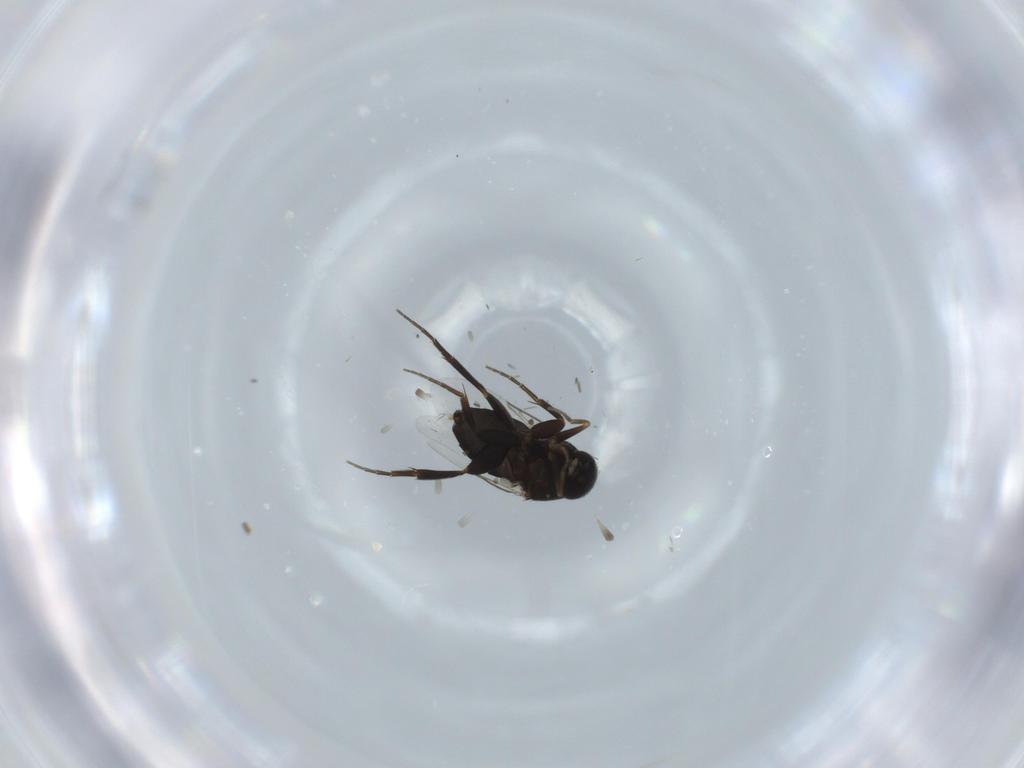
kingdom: Animalia
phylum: Arthropoda
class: Insecta
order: Diptera
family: Phoridae
